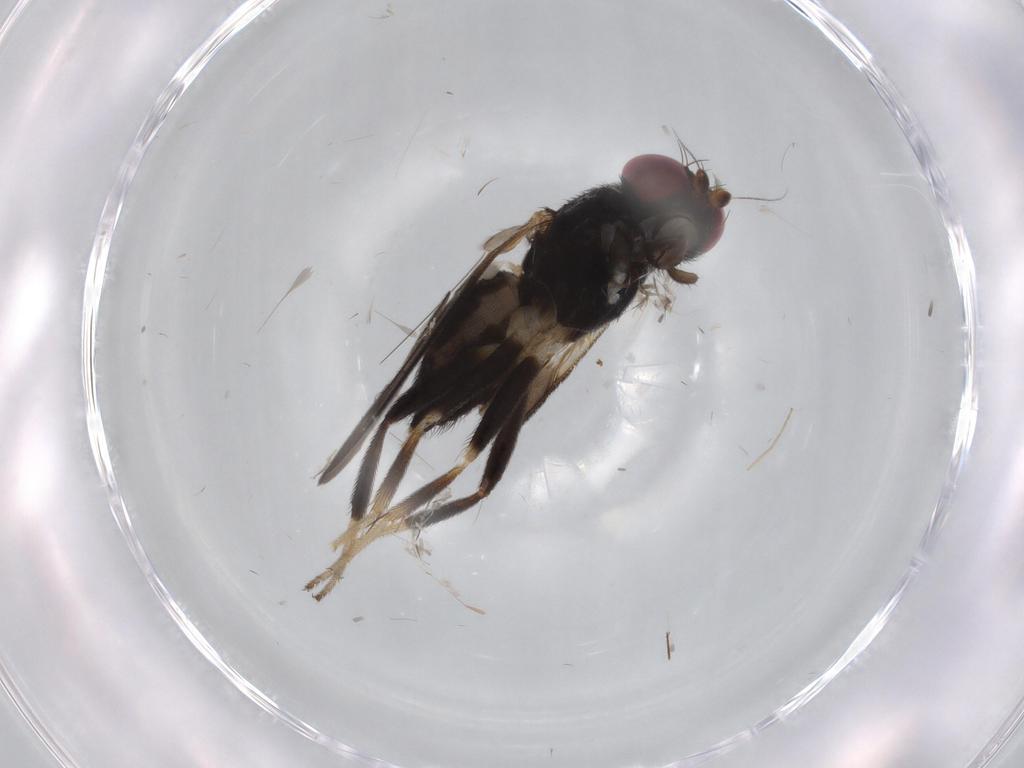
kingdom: Animalia
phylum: Arthropoda
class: Insecta
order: Diptera
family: Clusiidae
